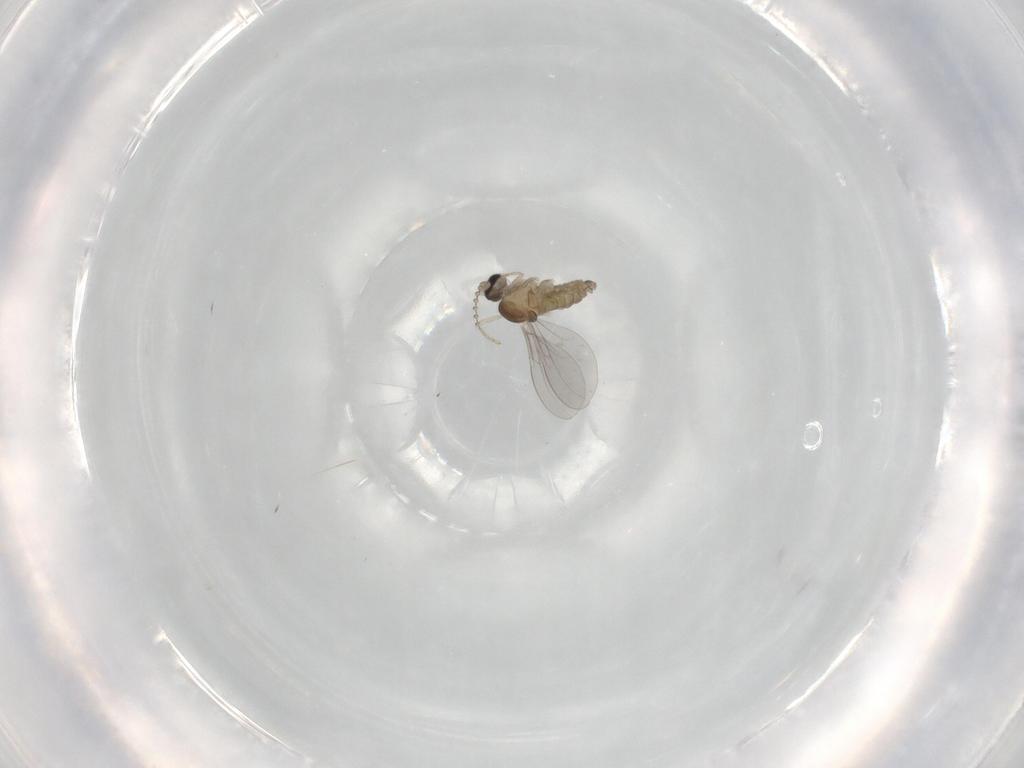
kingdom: Animalia
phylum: Arthropoda
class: Insecta
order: Diptera
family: Cecidomyiidae
